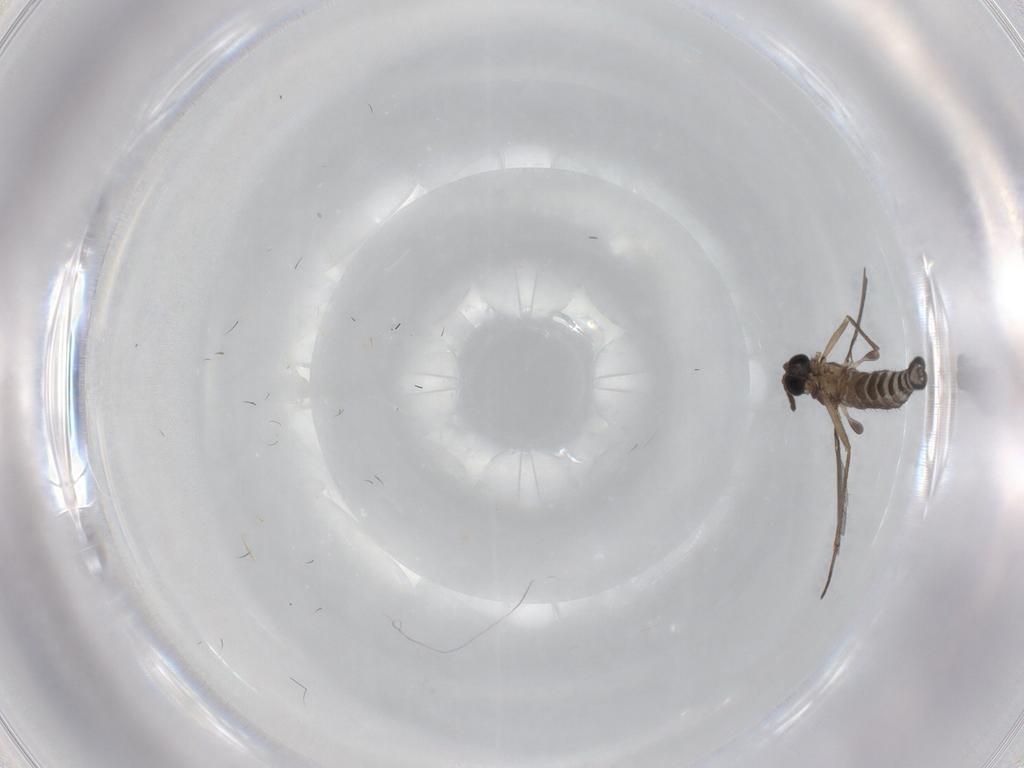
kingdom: Animalia
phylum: Arthropoda
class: Insecta
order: Diptera
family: Sciaridae
